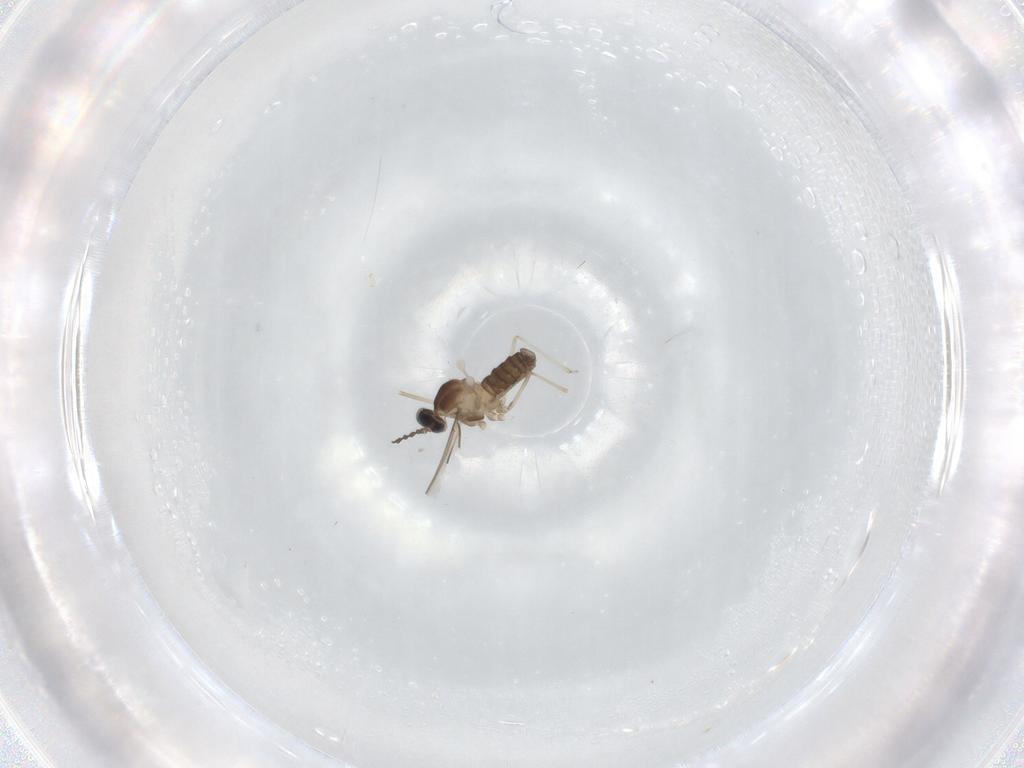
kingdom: Animalia
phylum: Arthropoda
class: Insecta
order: Diptera
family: Cecidomyiidae
